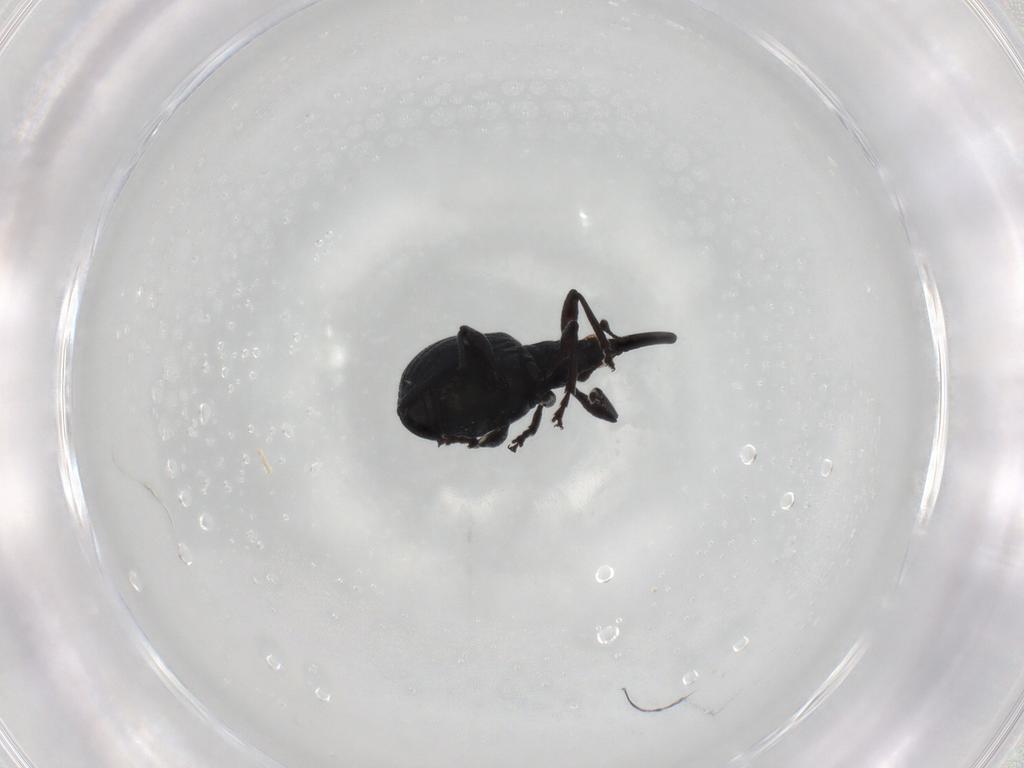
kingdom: Animalia
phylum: Arthropoda
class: Insecta
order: Coleoptera
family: Brentidae
